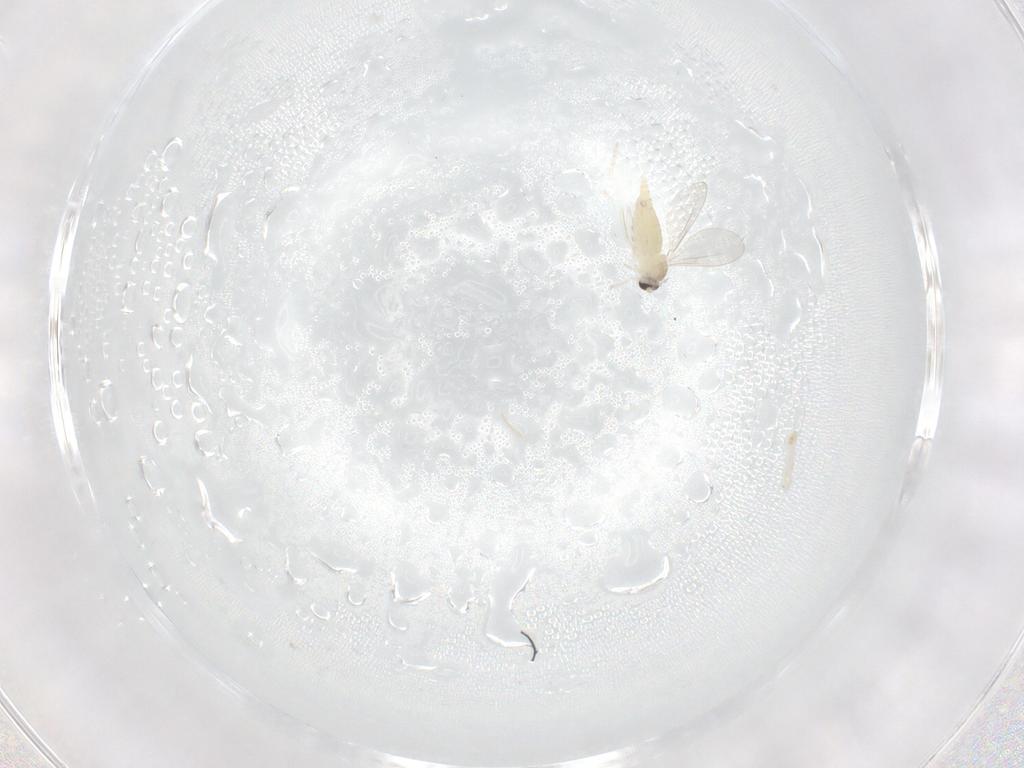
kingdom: Animalia
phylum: Arthropoda
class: Insecta
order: Diptera
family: Cecidomyiidae
